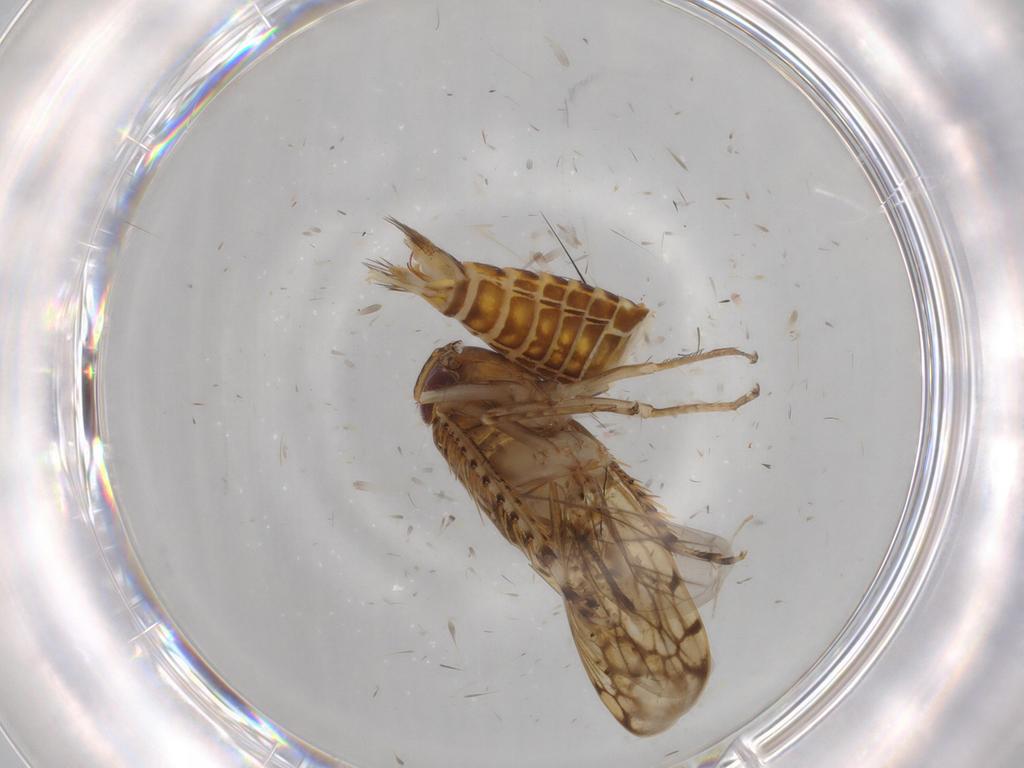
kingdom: Animalia
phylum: Arthropoda
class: Insecta
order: Hemiptera
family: Cicadellidae
